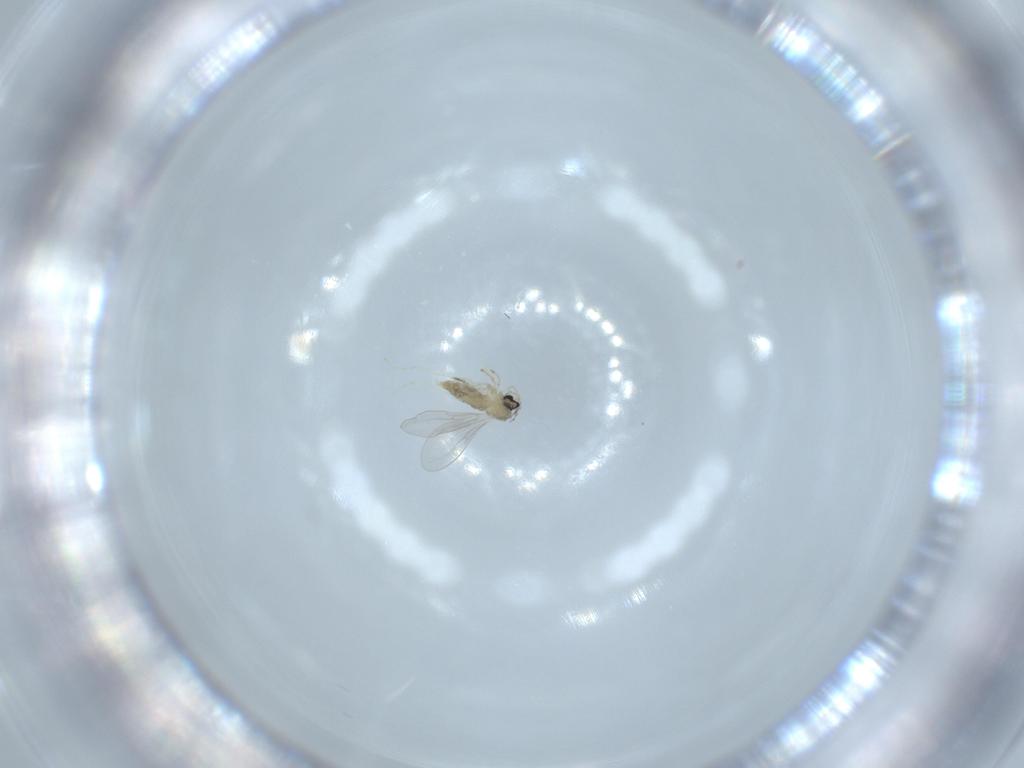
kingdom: Animalia
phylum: Arthropoda
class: Insecta
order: Diptera
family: Cecidomyiidae
